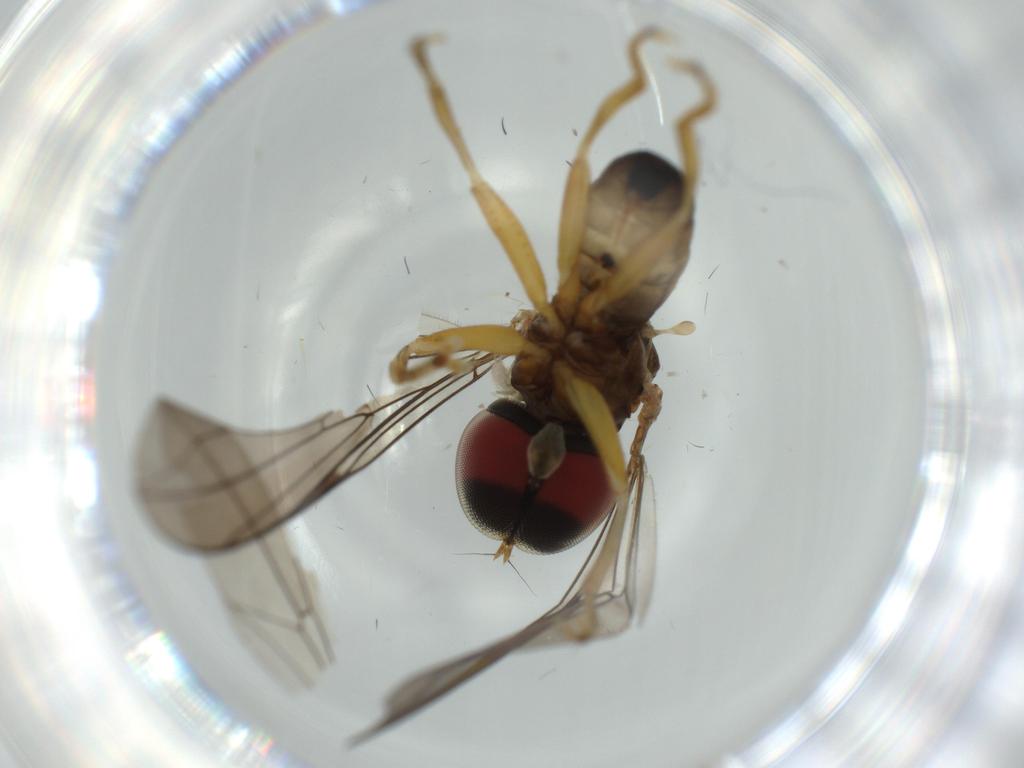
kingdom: Animalia
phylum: Arthropoda
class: Insecta
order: Diptera
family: Pipunculidae
